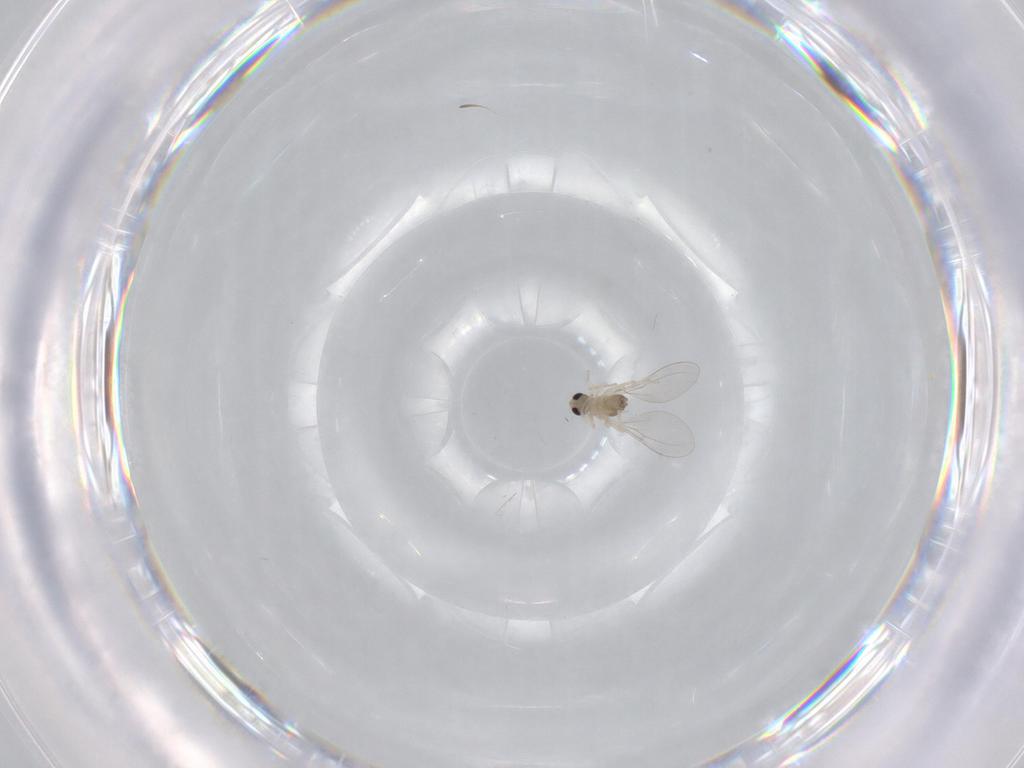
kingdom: Animalia
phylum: Arthropoda
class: Insecta
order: Diptera
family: Cecidomyiidae
